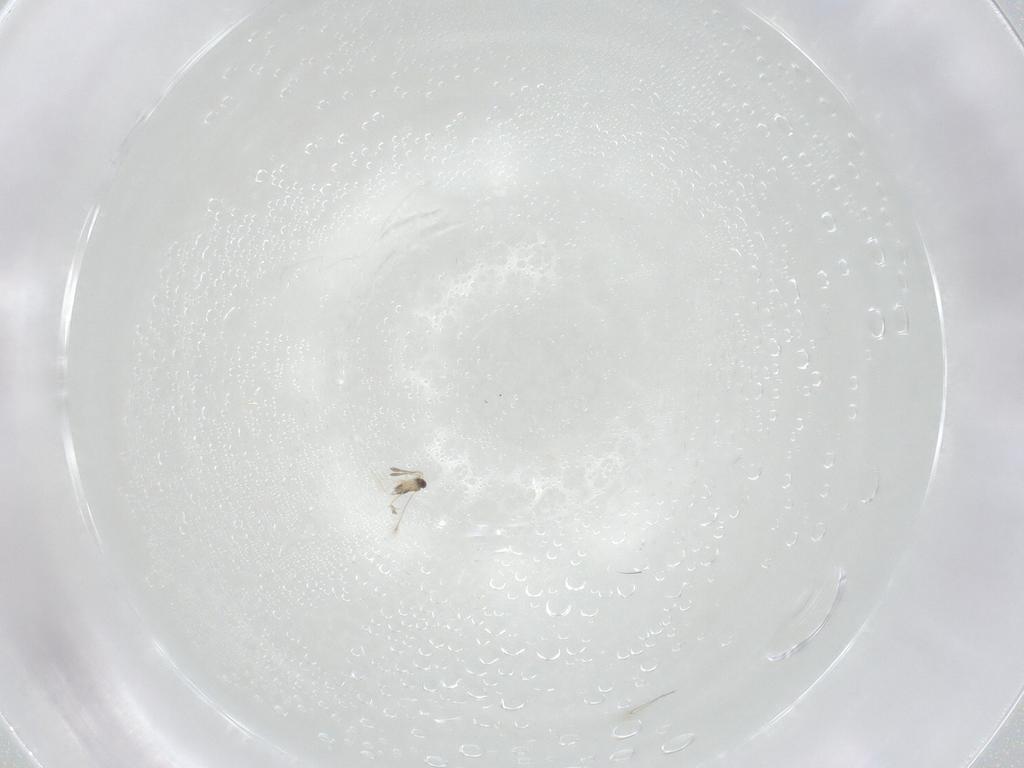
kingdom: Animalia
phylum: Arthropoda
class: Insecta
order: Hemiptera
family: Aphididae
